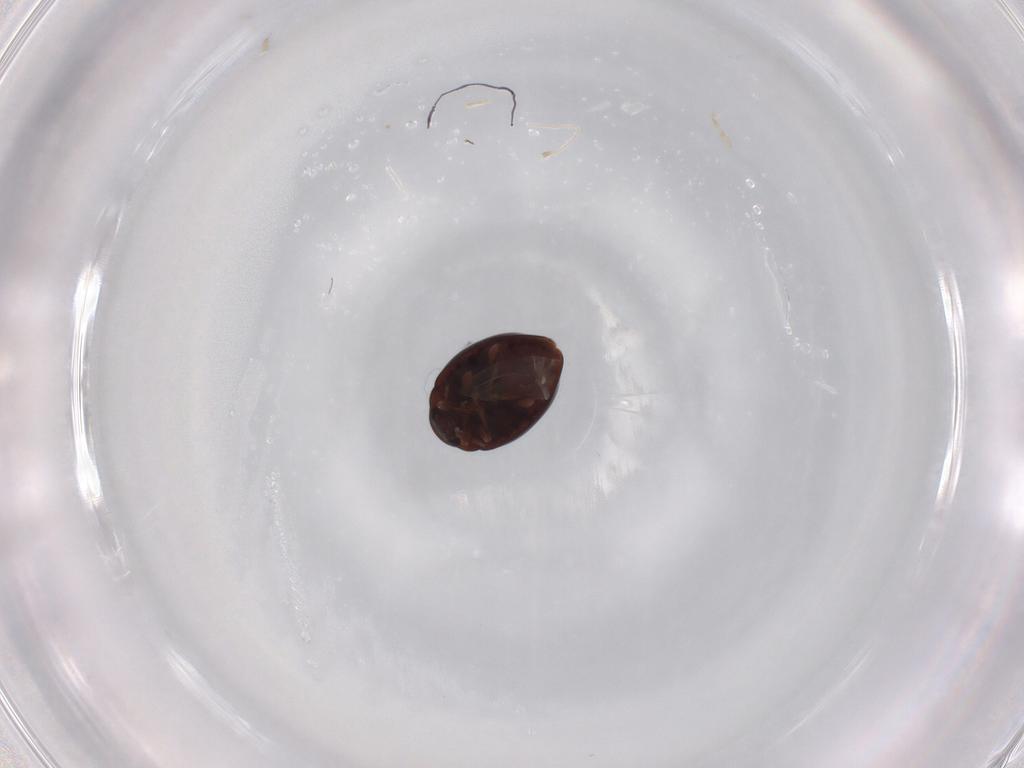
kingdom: Animalia
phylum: Arthropoda
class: Insecta
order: Coleoptera
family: Coccinellidae
